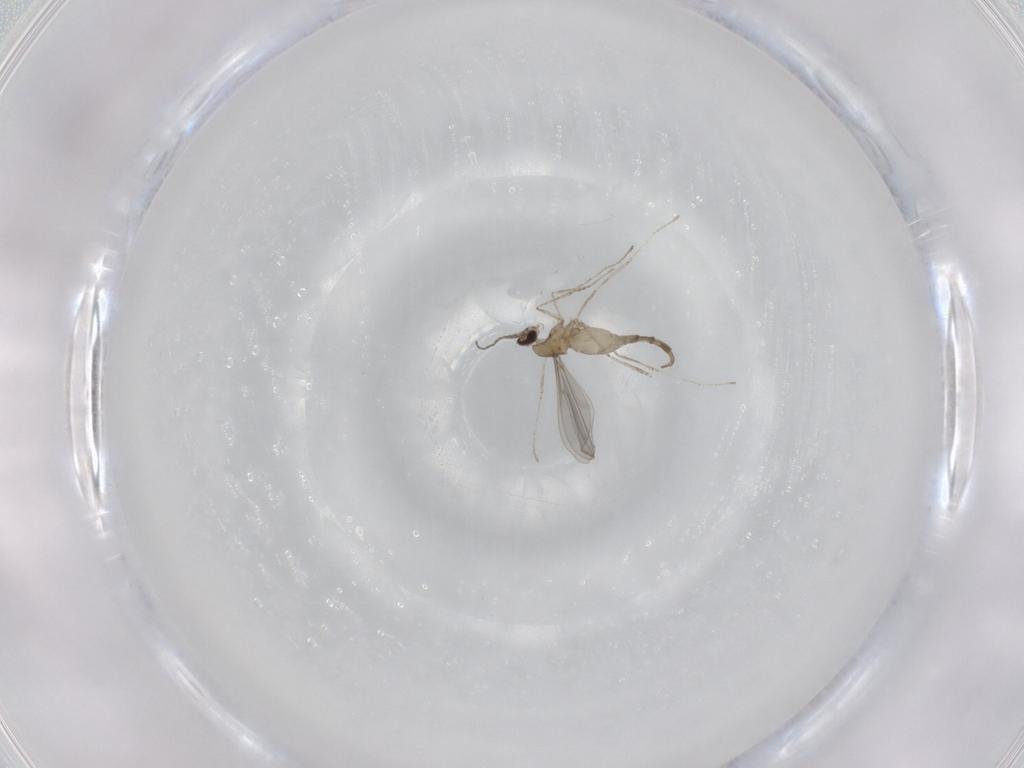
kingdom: Animalia
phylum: Arthropoda
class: Insecta
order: Diptera
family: Cecidomyiidae
